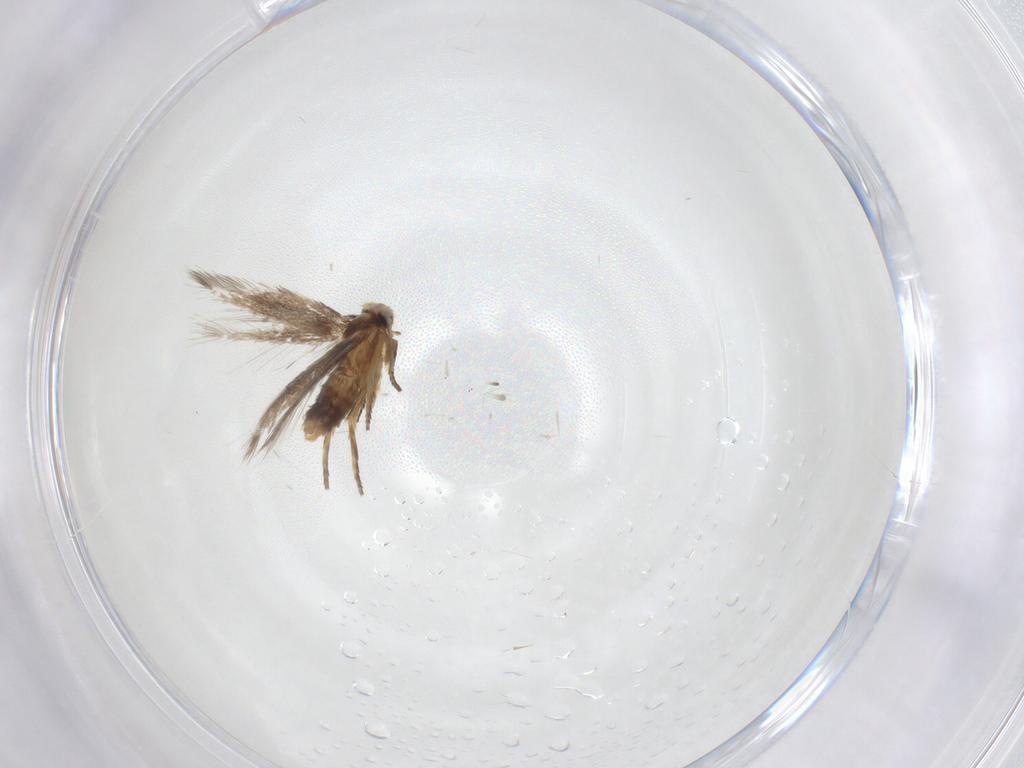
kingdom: Animalia
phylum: Arthropoda
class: Insecta
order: Lepidoptera
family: Nepticulidae
